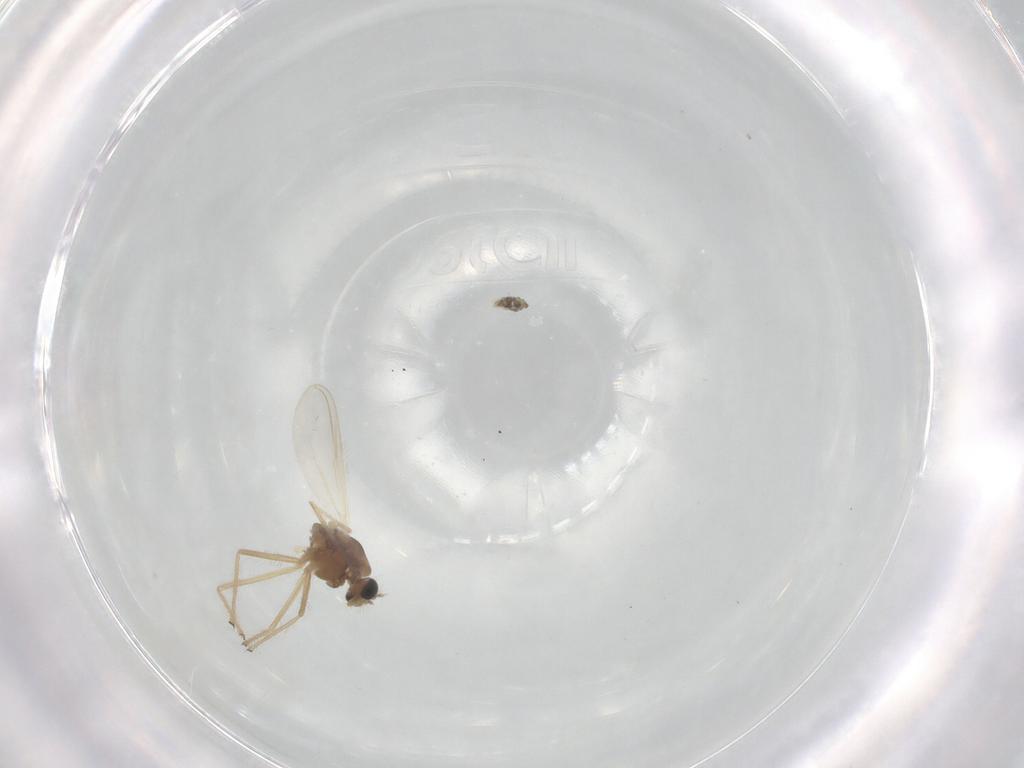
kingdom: Animalia
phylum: Arthropoda
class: Insecta
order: Diptera
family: Chironomidae
